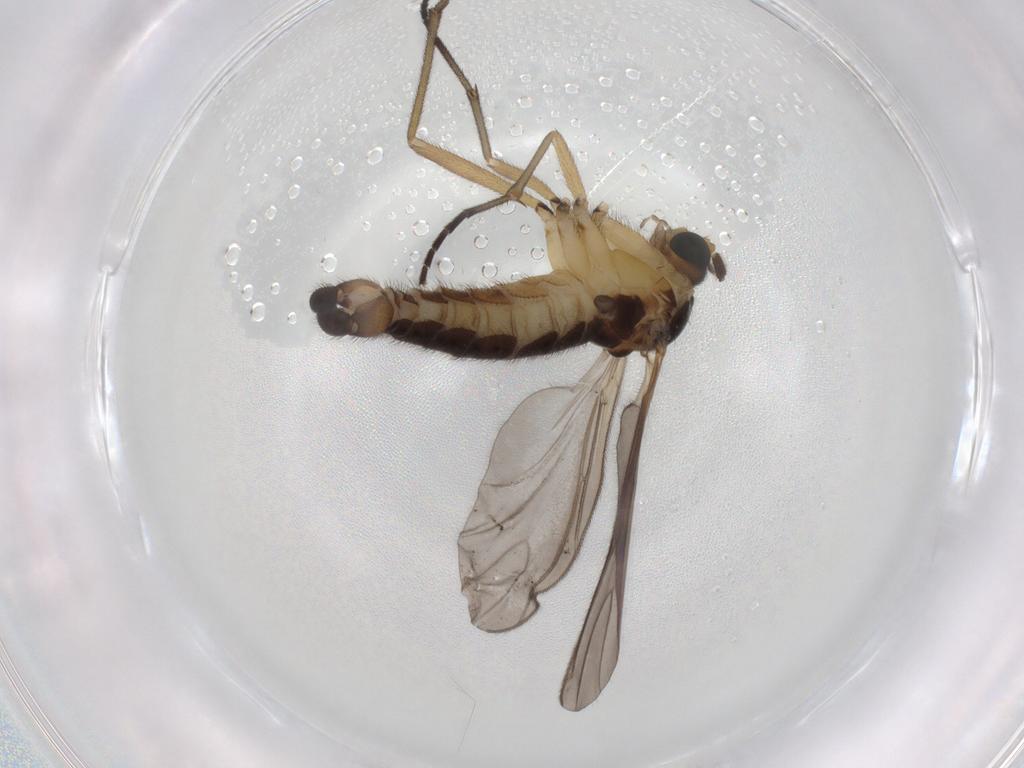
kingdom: Animalia
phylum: Arthropoda
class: Insecta
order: Diptera
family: Sciaridae
